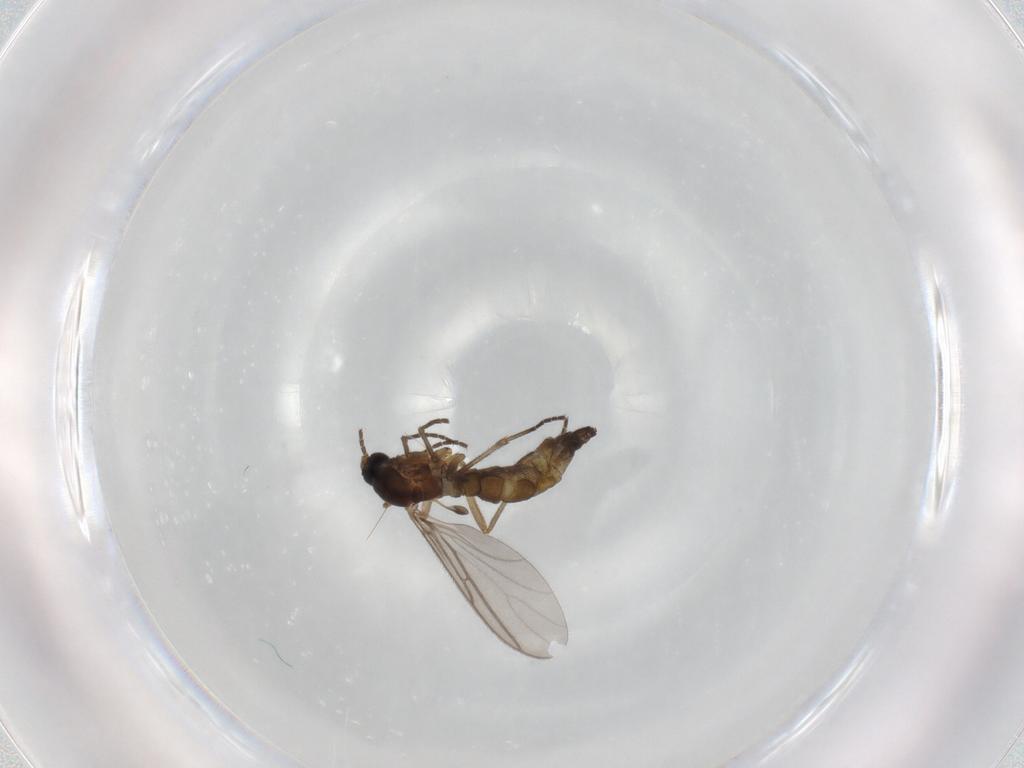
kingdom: Animalia
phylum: Arthropoda
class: Insecta
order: Diptera
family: Sciaridae
